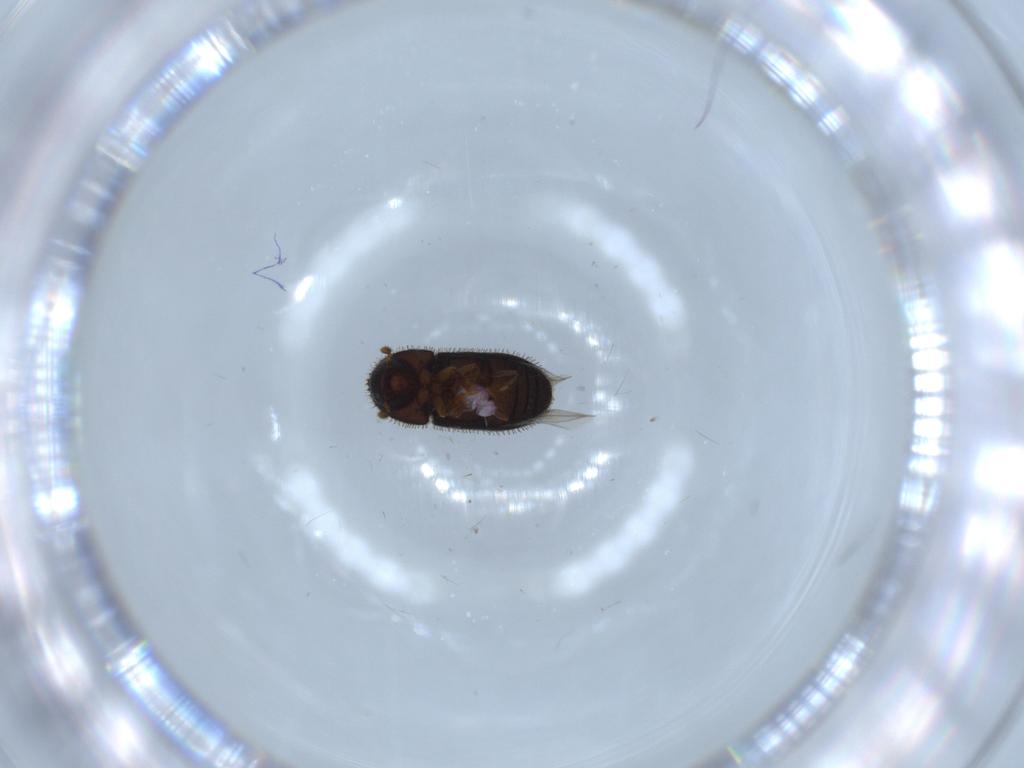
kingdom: Animalia
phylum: Arthropoda
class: Insecta
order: Coleoptera
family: Curculionidae
